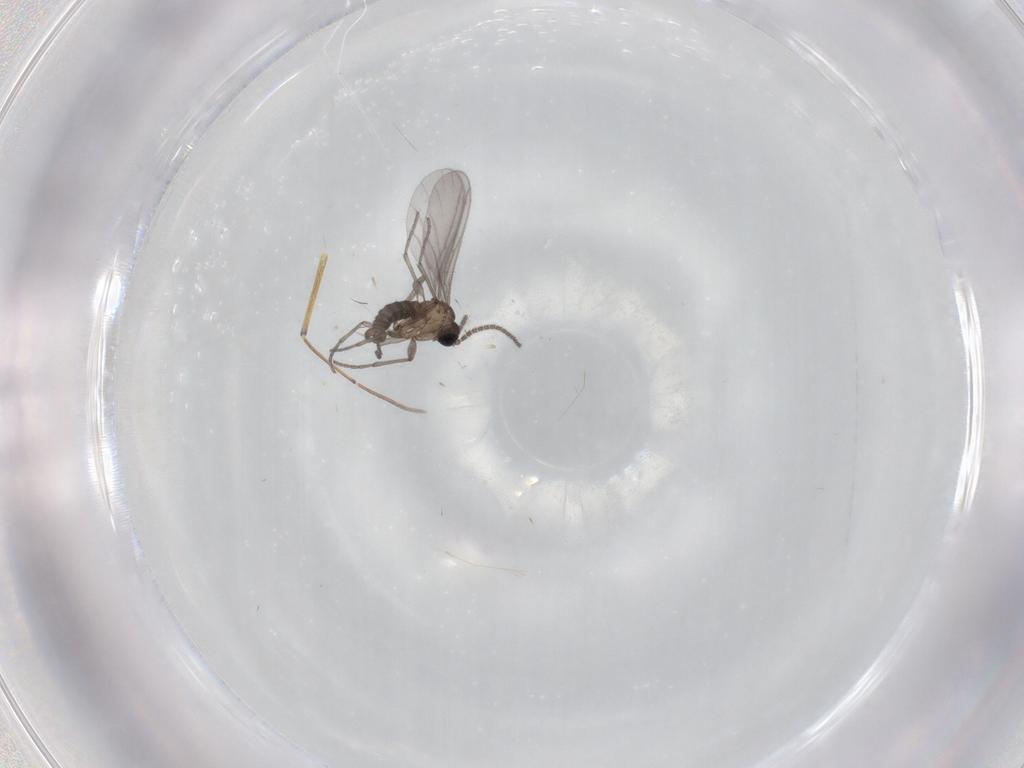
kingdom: Animalia
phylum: Arthropoda
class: Insecta
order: Diptera
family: Sciaridae
